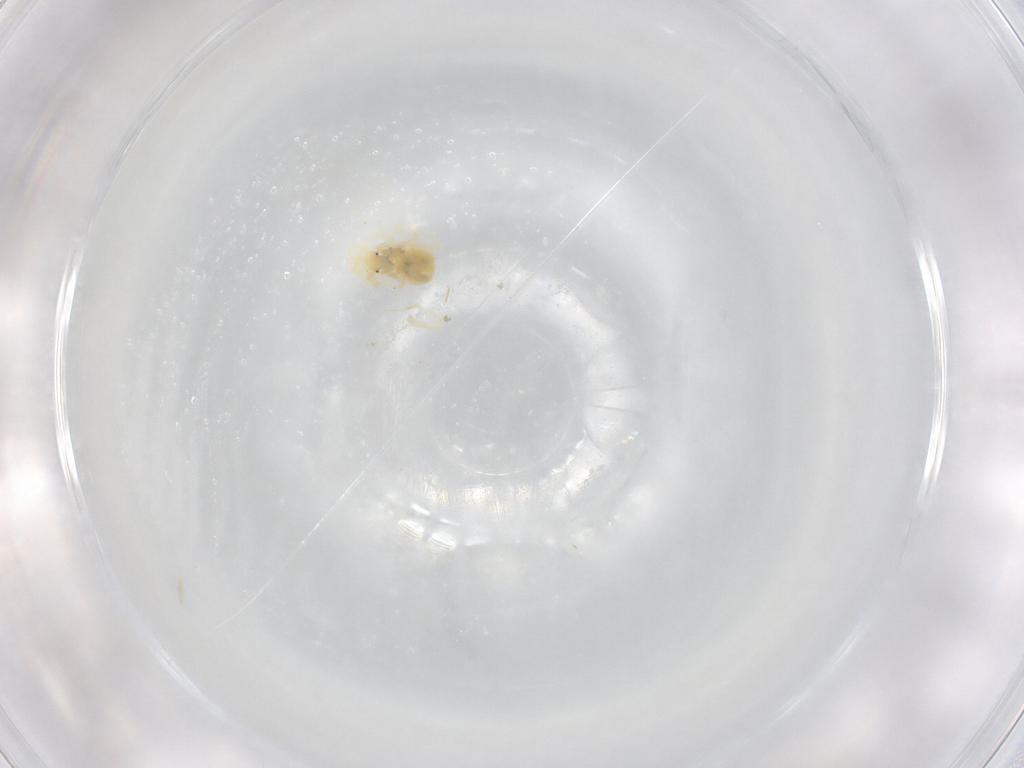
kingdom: Animalia
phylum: Arthropoda
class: Arachnida
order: Trombidiformes
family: Anystidae
